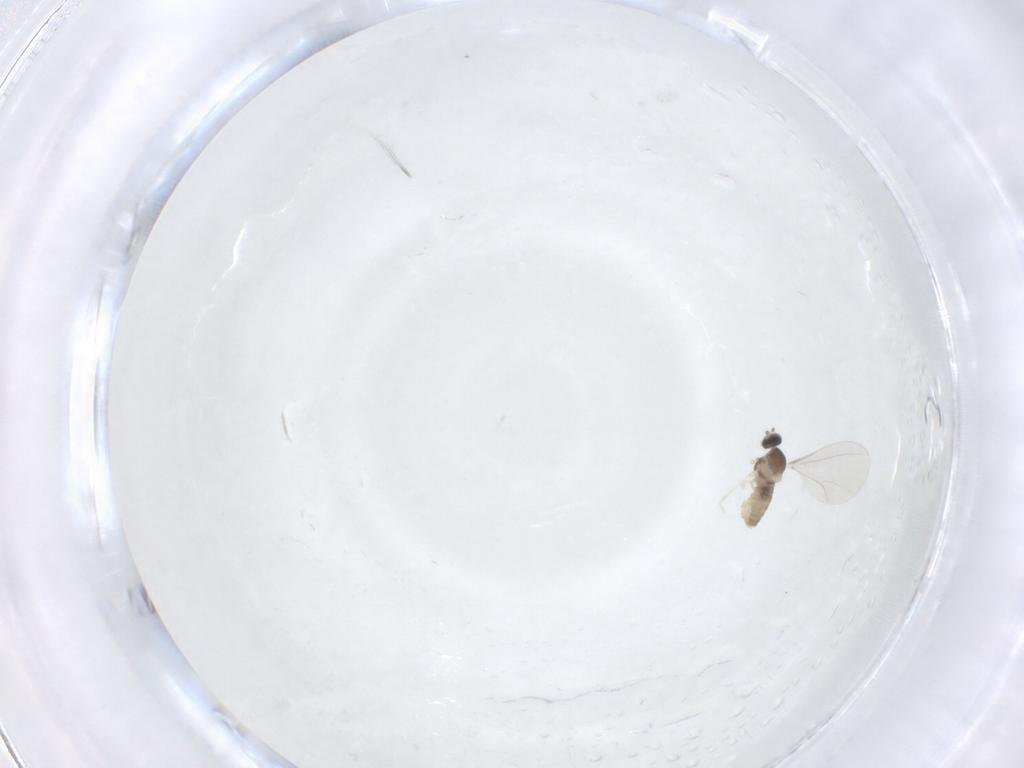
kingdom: Animalia
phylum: Arthropoda
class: Insecta
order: Diptera
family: Cecidomyiidae
